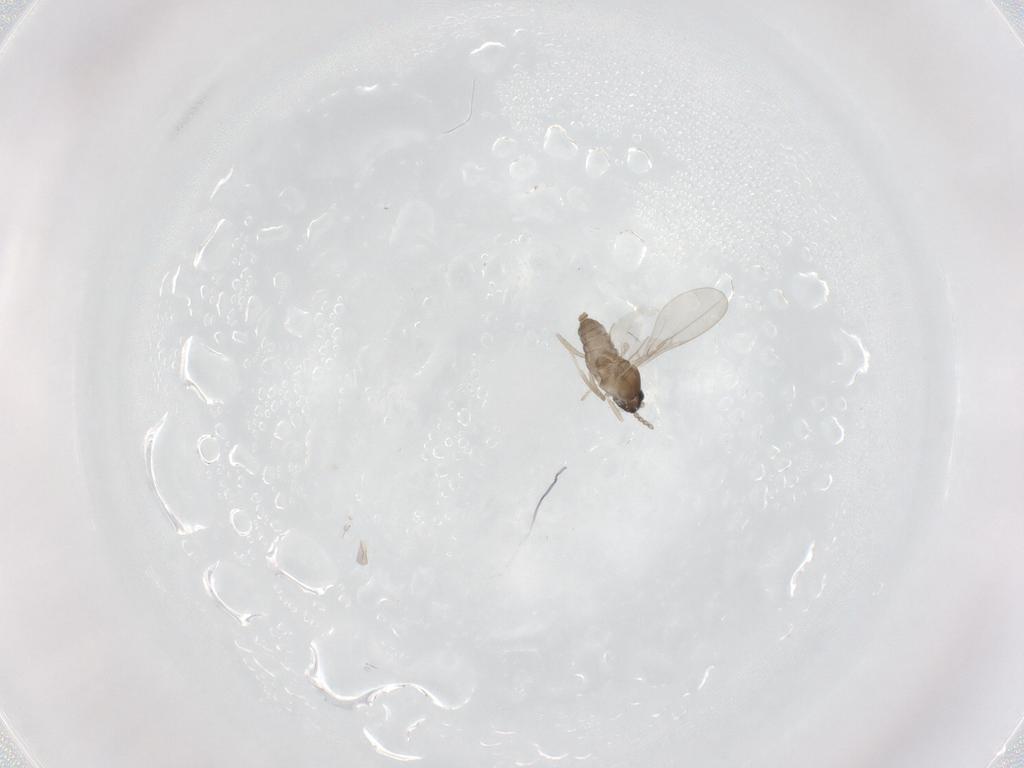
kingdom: Animalia
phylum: Arthropoda
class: Insecta
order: Diptera
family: Cecidomyiidae
